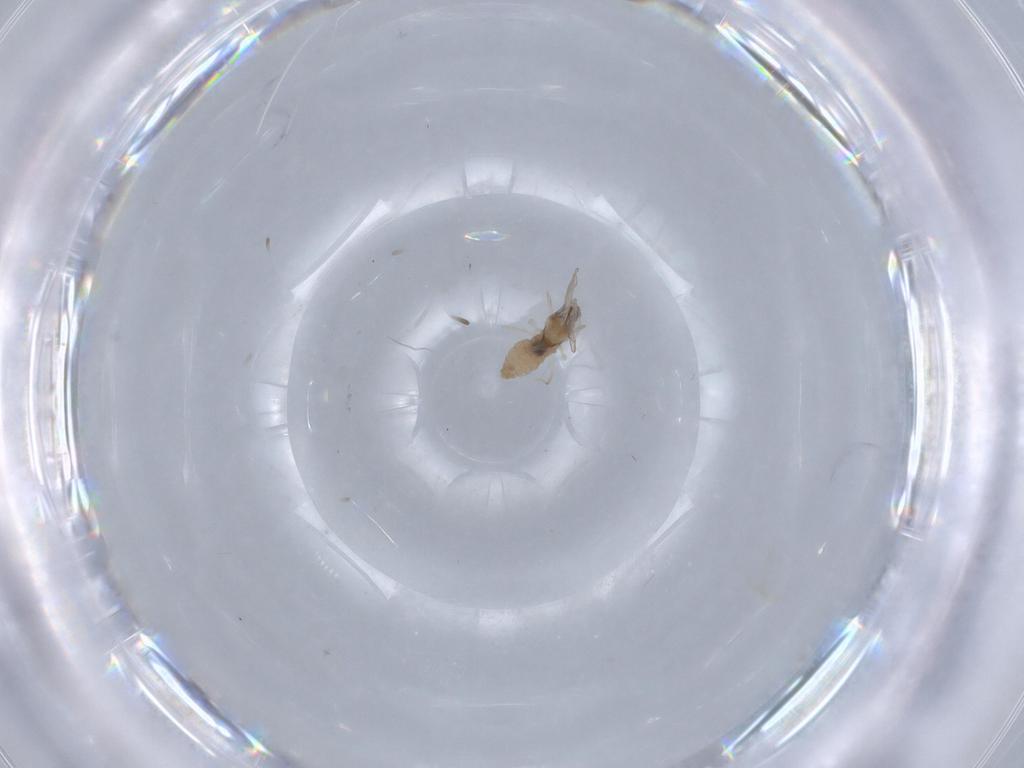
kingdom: Animalia
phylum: Arthropoda
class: Insecta
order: Diptera
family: Cecidomyiidae
